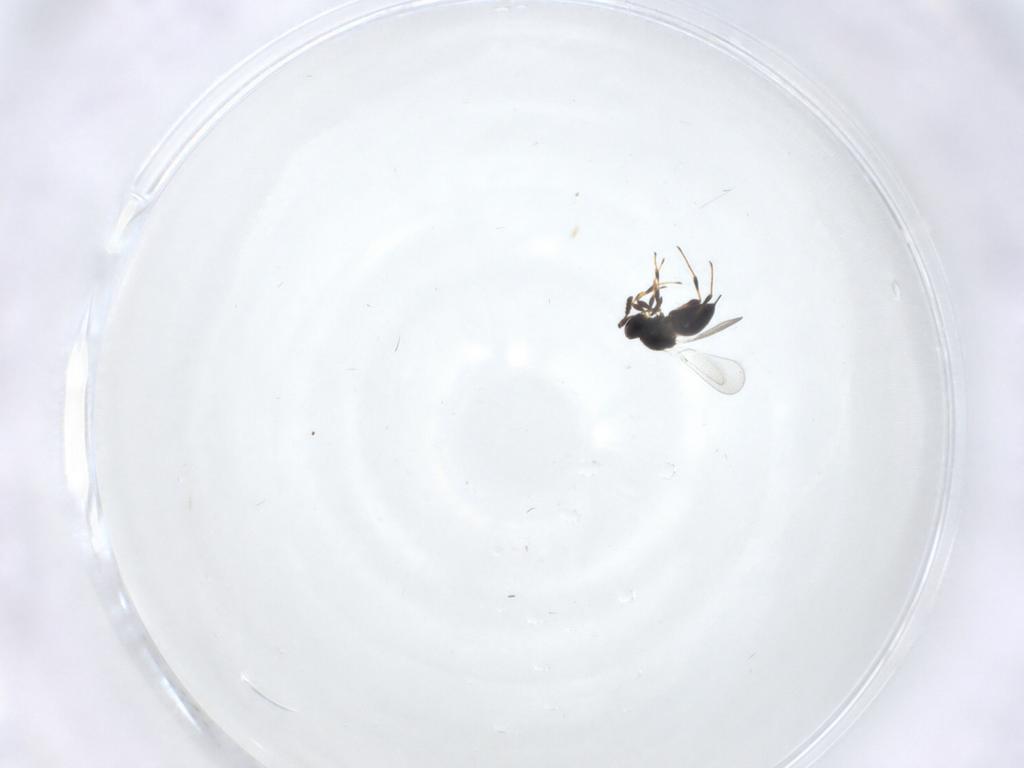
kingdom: Animalia
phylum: Arthropoda
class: Insecta
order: Hymenoptera
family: Platygastridae
